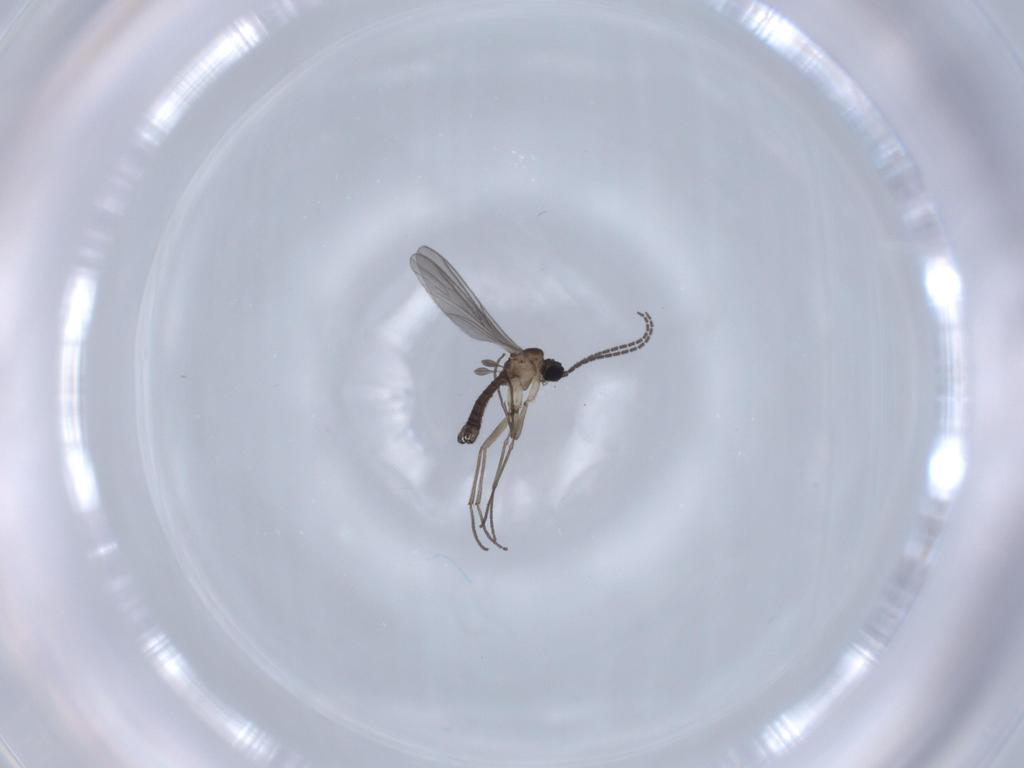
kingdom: Animalia
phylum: Arthropoda
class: Insecta
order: Diptera
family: Sciaridae
